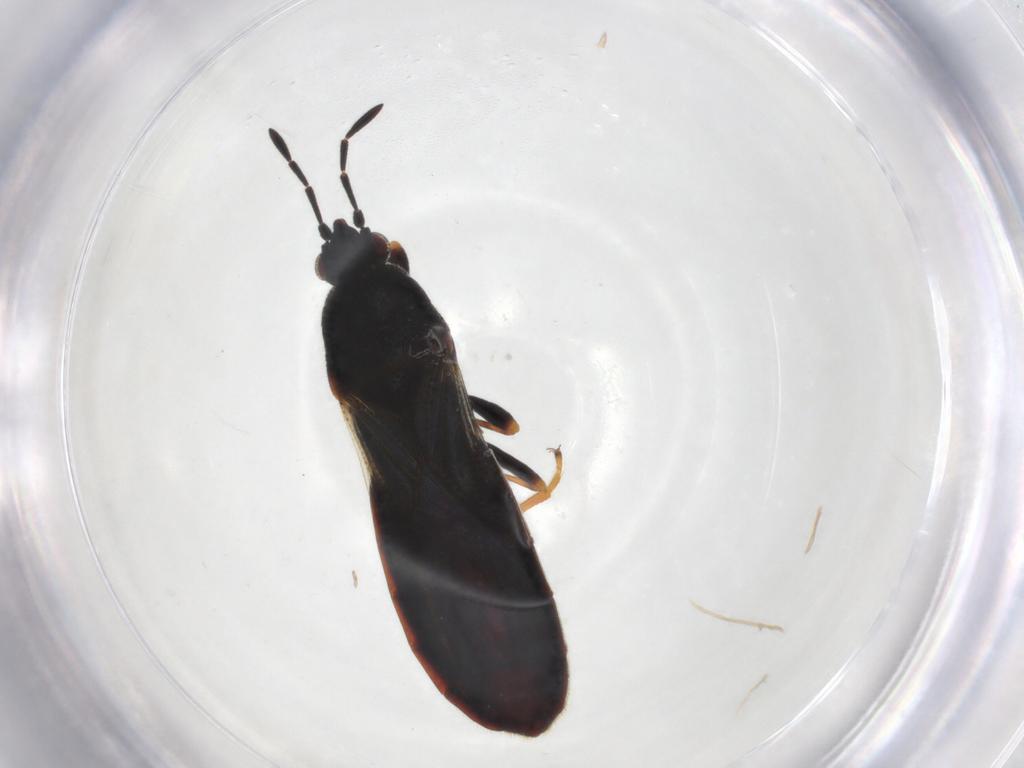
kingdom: Animalia
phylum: Arthropoda
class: Insecta
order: Hemiptera
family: Blissidae
